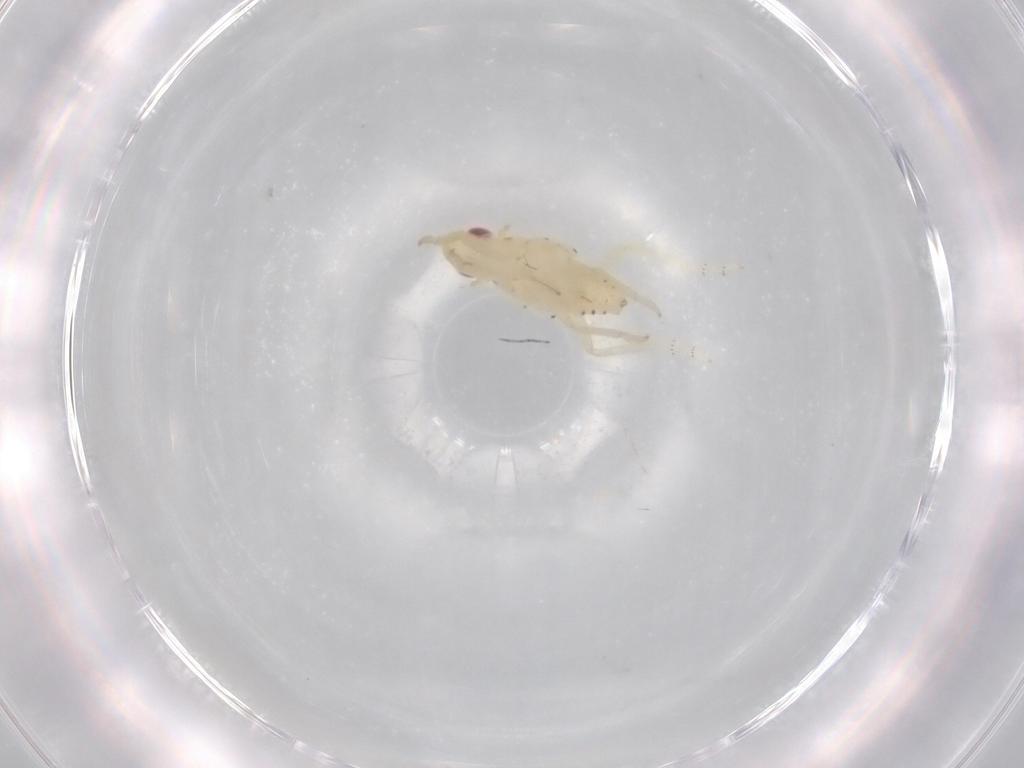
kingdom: Animalia
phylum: Arthropoda
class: Insecta
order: Hemiptera
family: Tropiduchidae
